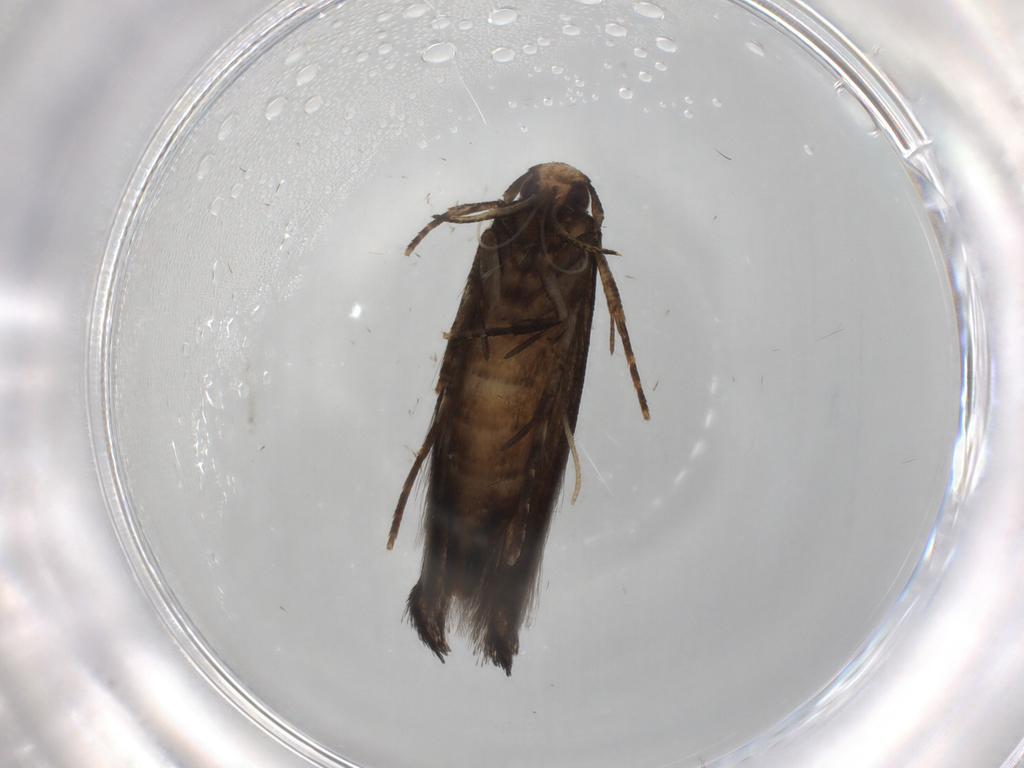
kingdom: Animalia
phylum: Arthropoda
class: Insecta
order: Lepidoptera
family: Cosmopterigidae
